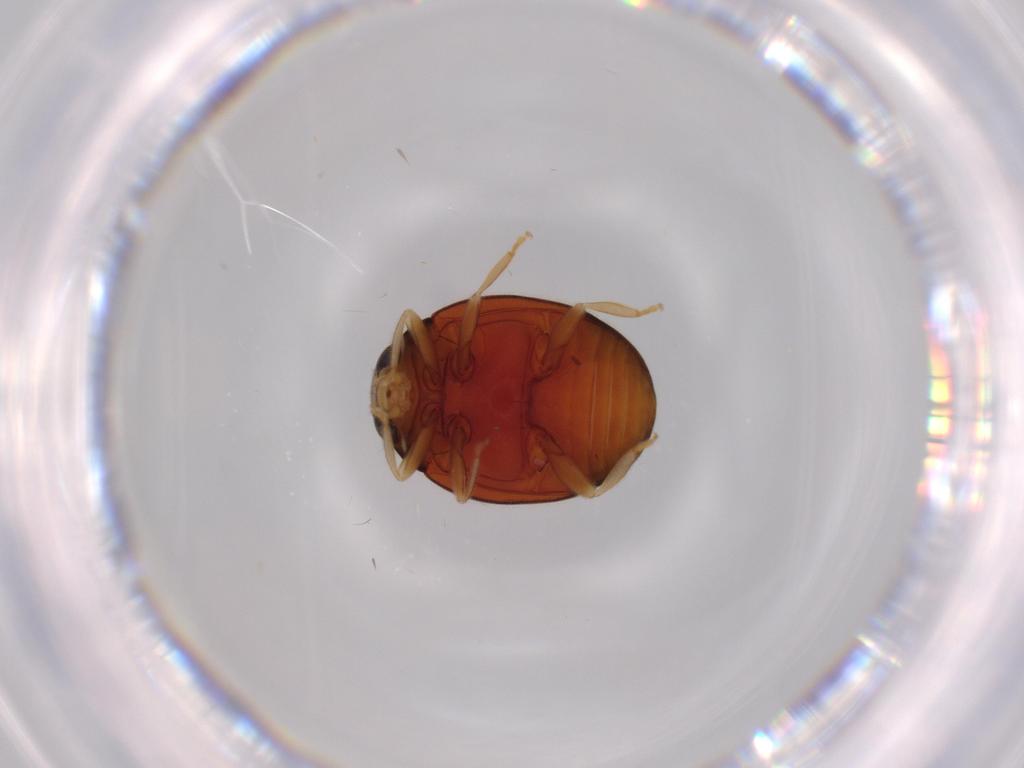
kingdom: Animalia
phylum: Arthropoda
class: Insecta
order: Coleoptera
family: Coccinellidae
